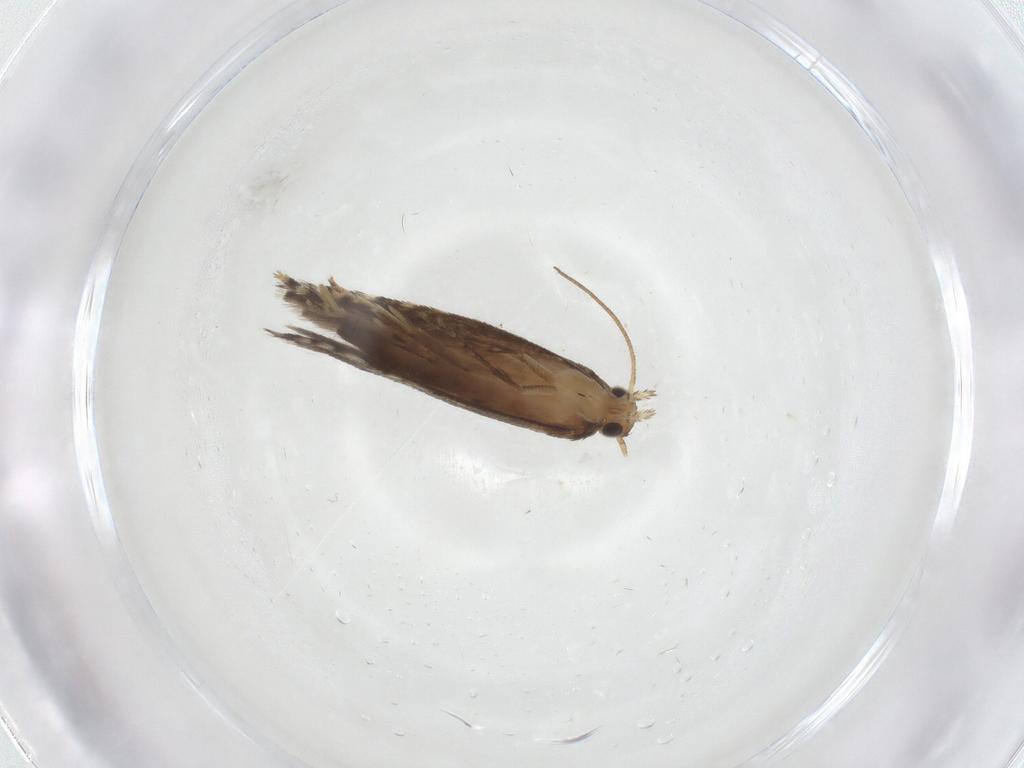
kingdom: Animalia
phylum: Arthropoda
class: Insecta
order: Lepidoptera
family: Glyphipterigidae
